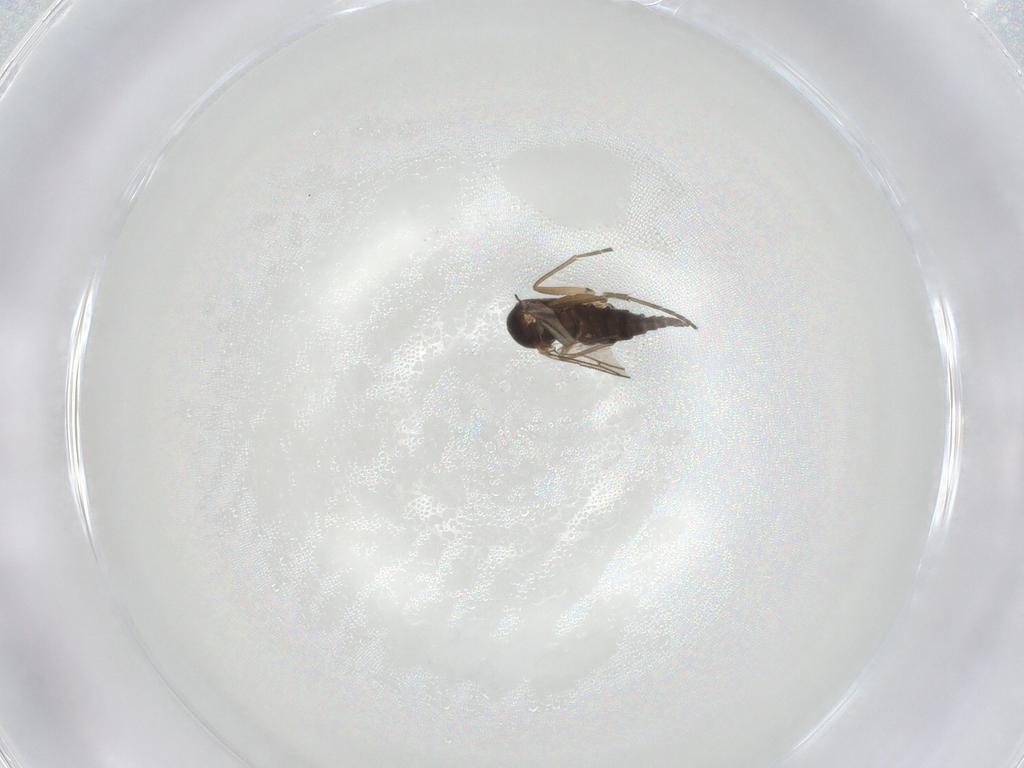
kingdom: Animalia
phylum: Arthropoda
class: Insecta
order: Diptera
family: Sciaridae
